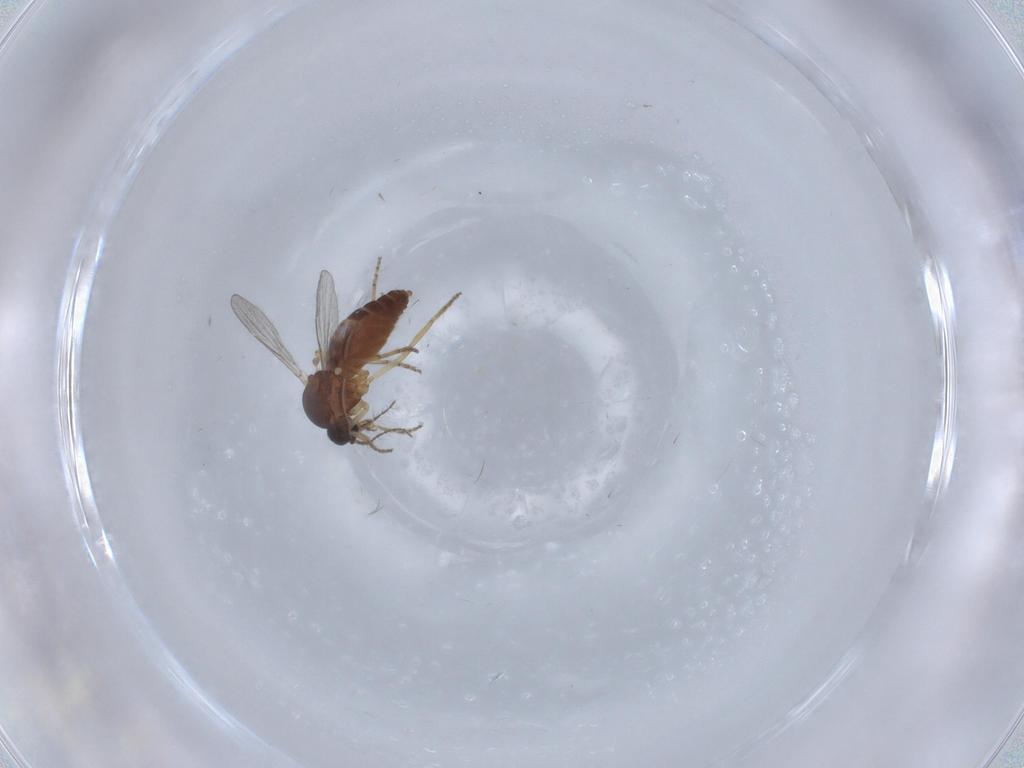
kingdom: Animalia
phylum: Arthropoda
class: Insecta
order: Diptera
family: Ceratopogonidae
